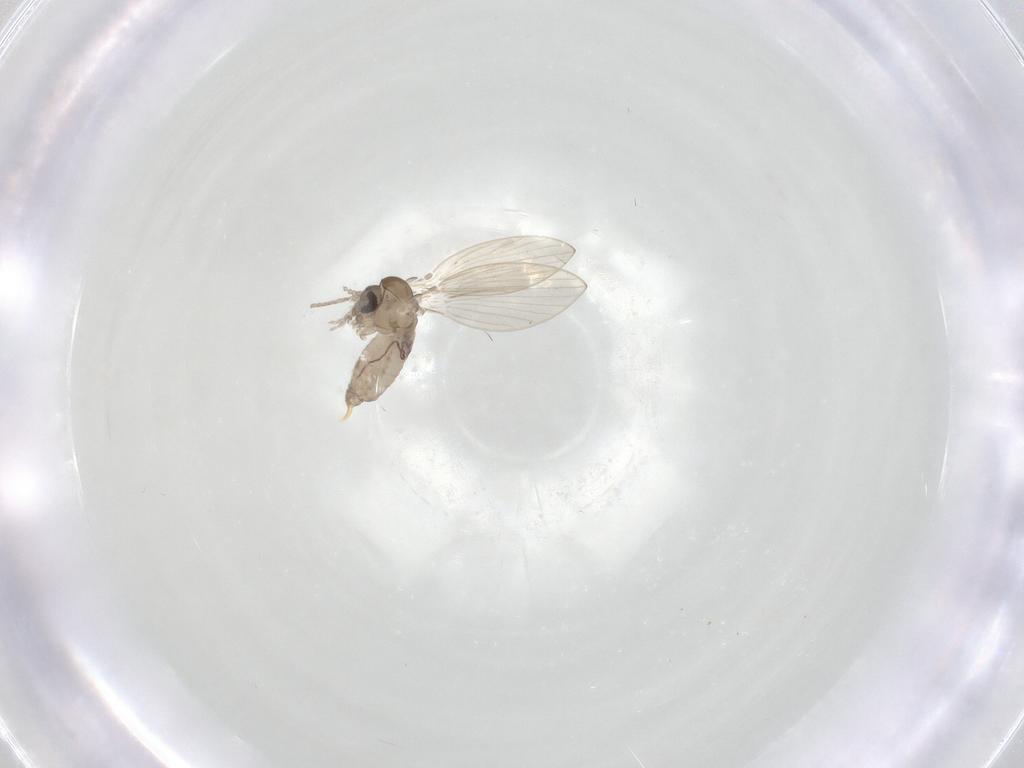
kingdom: Animalia
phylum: Arthropoda
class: Insecta
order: Diptera
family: Psychodidae
